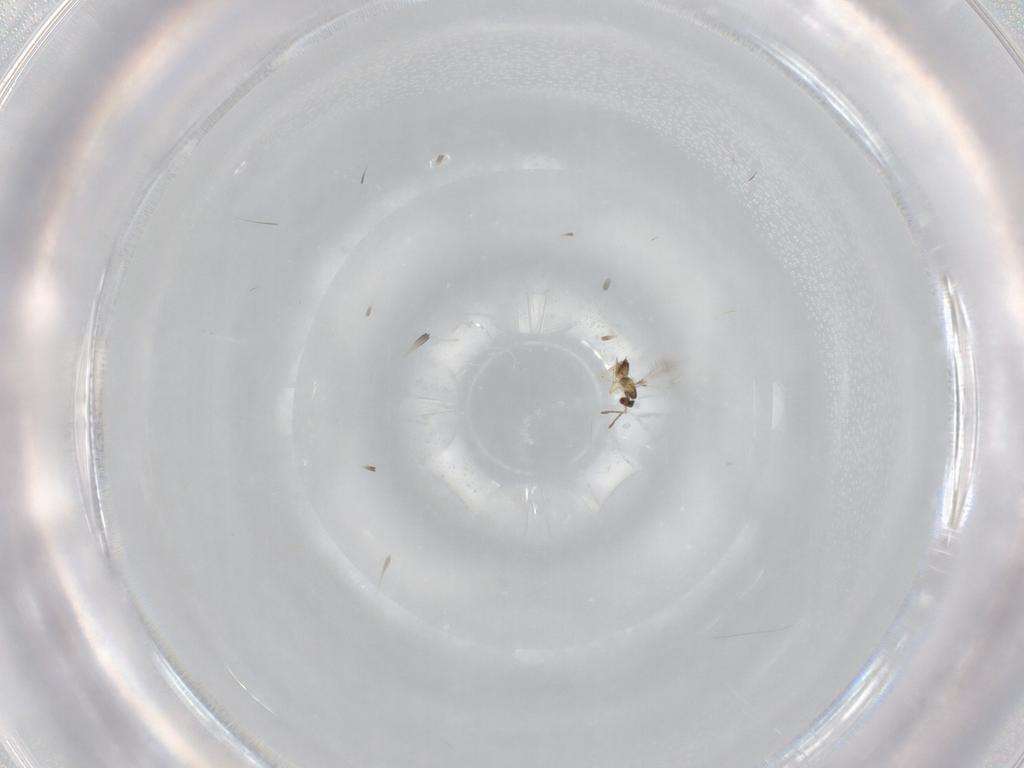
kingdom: Animalia
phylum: Arthropoda
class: Insecta
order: Hymenoptera
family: Mymaridae
